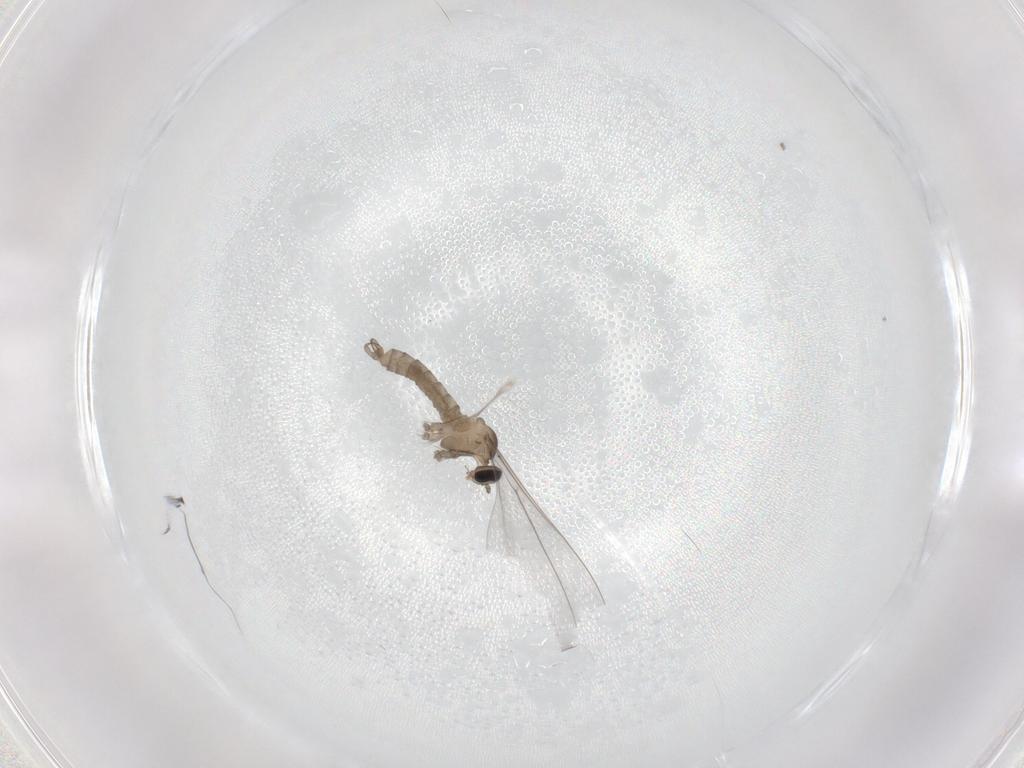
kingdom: Animalia
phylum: Arthropoda
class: Insecta
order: Diptera
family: Cecidomyiidae
